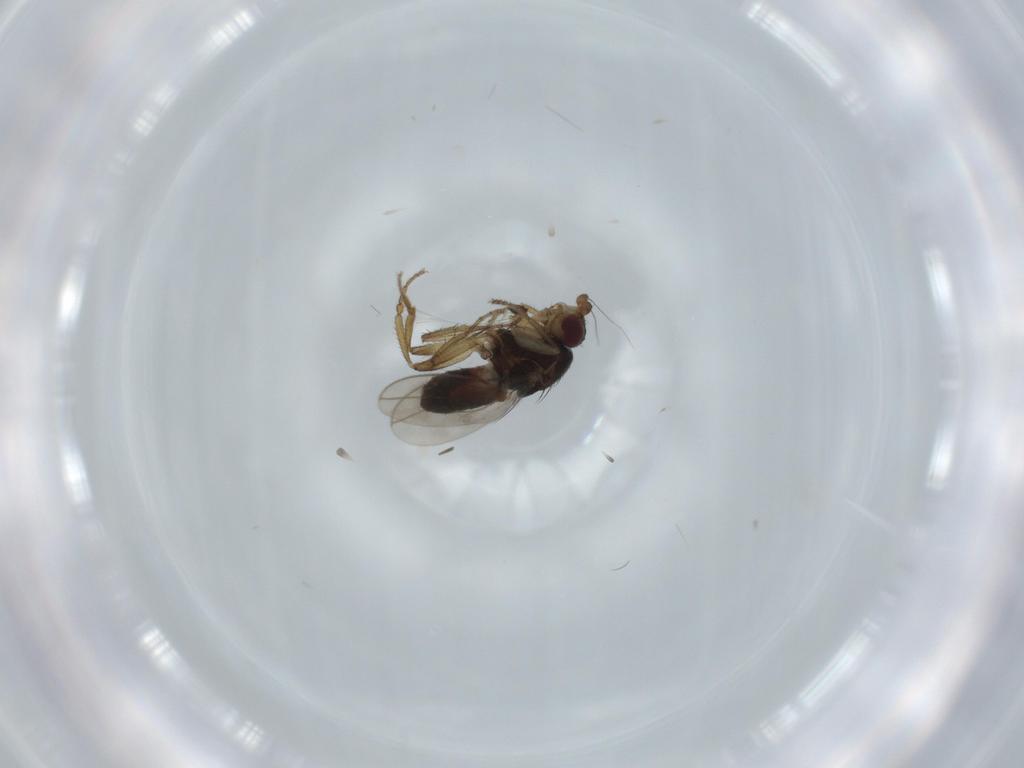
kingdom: Animalia
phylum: Arthropoda
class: Insecta
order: Diptera
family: Sphaeroceridae
